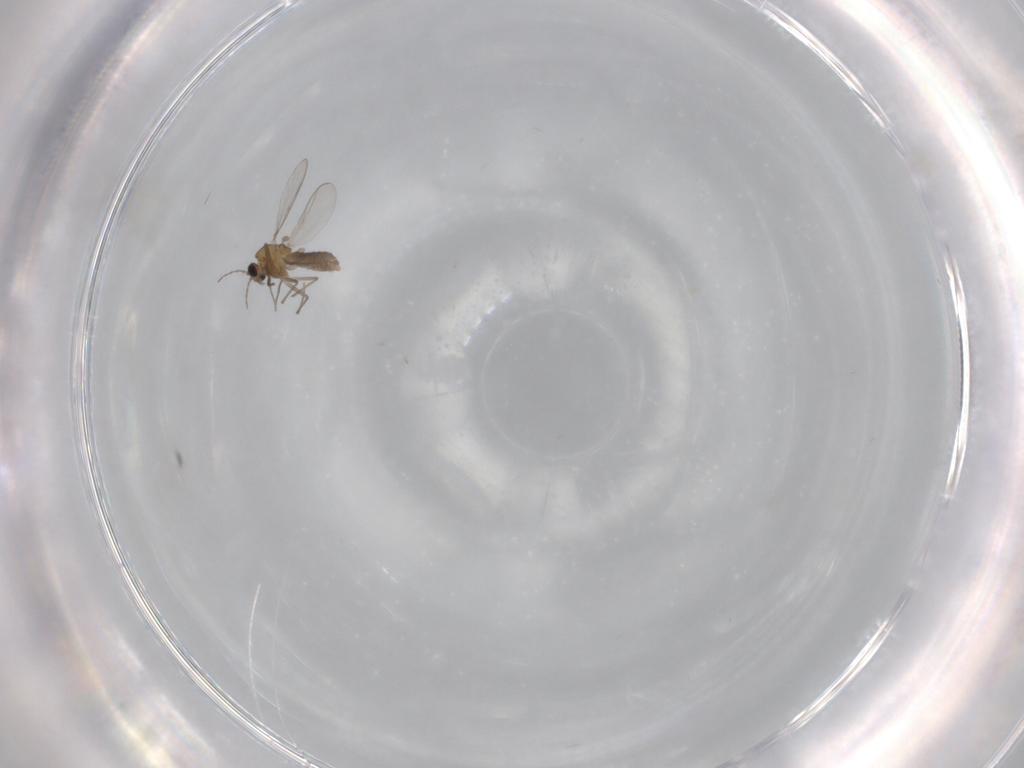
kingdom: Animalia
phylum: Arthropoda
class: Insecta
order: Diptera
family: Chironomidae
